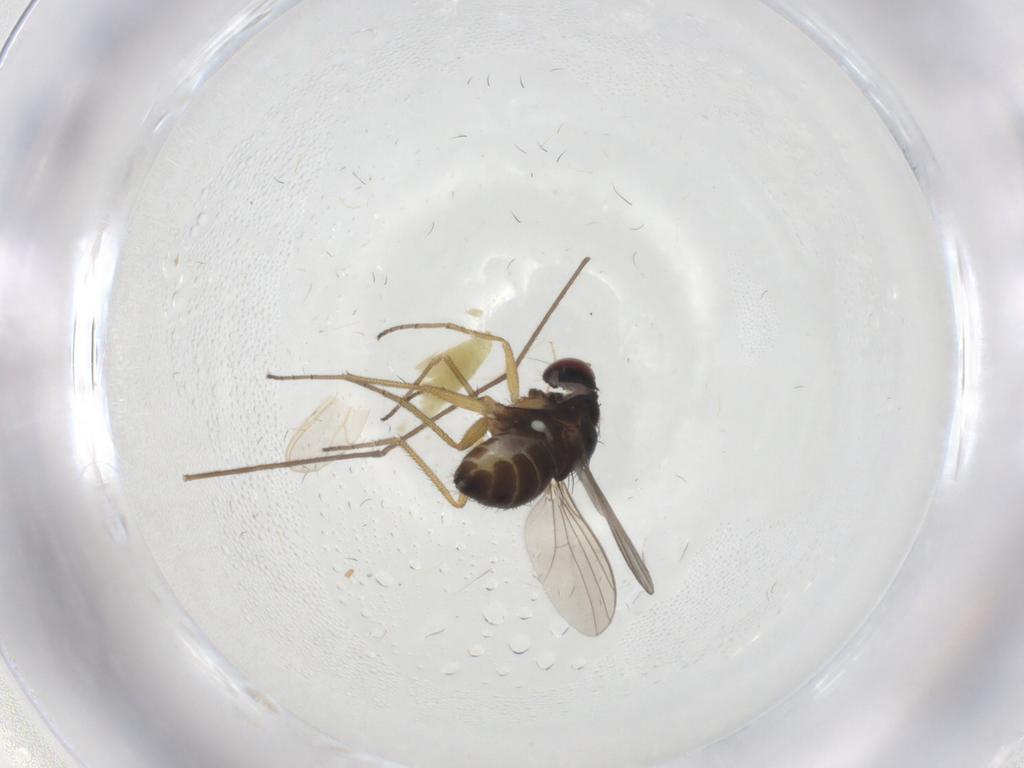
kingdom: Animalia
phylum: Arthropoda
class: Insecta
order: Diptera
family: Chironomidae
